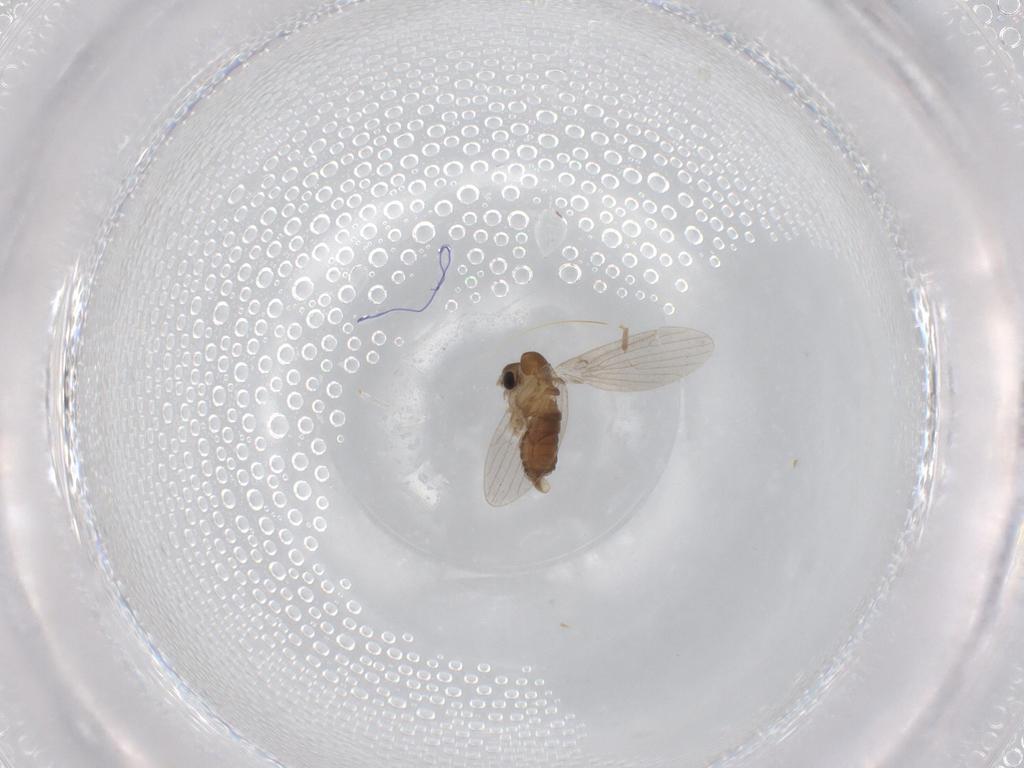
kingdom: Animalia
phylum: Arthropoda
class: Insecta
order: Diptera
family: Psychodidae
